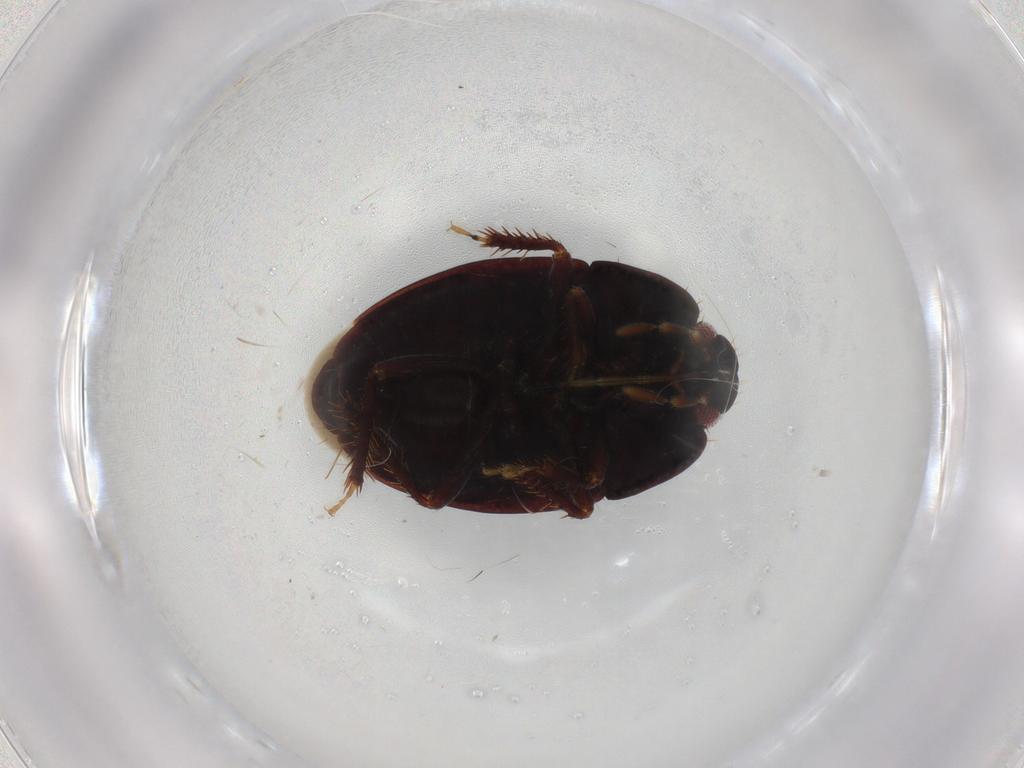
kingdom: Animalia
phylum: Arthropoda
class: Insecta
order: Hemiptera
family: Cydnidae
